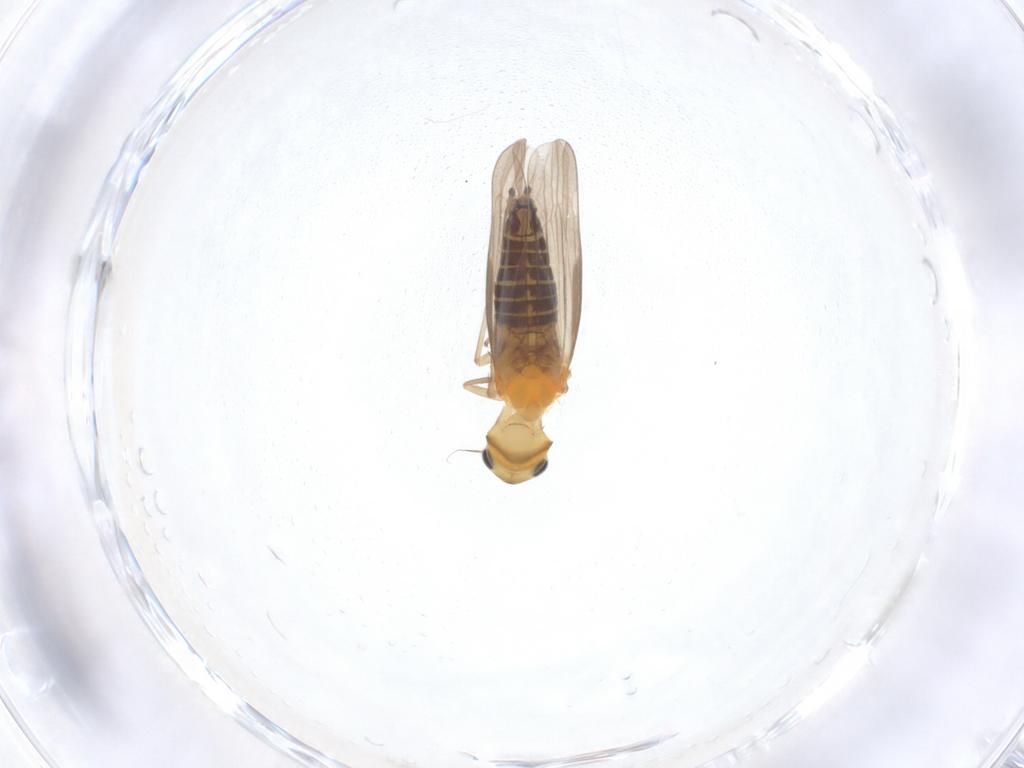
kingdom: Animalia
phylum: Arthropoda
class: Insecta
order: Hemiptera
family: Cicadellidae
